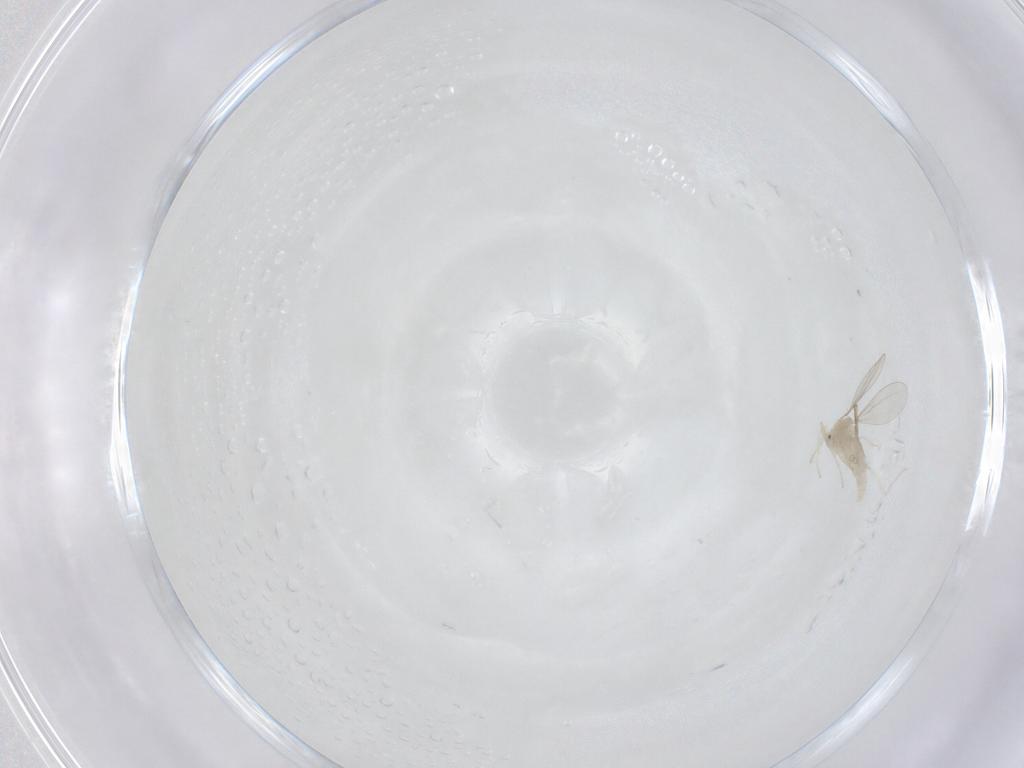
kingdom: Animalia
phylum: Arthropoda
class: Insecta
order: Diptera
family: Cecidomyiidae
